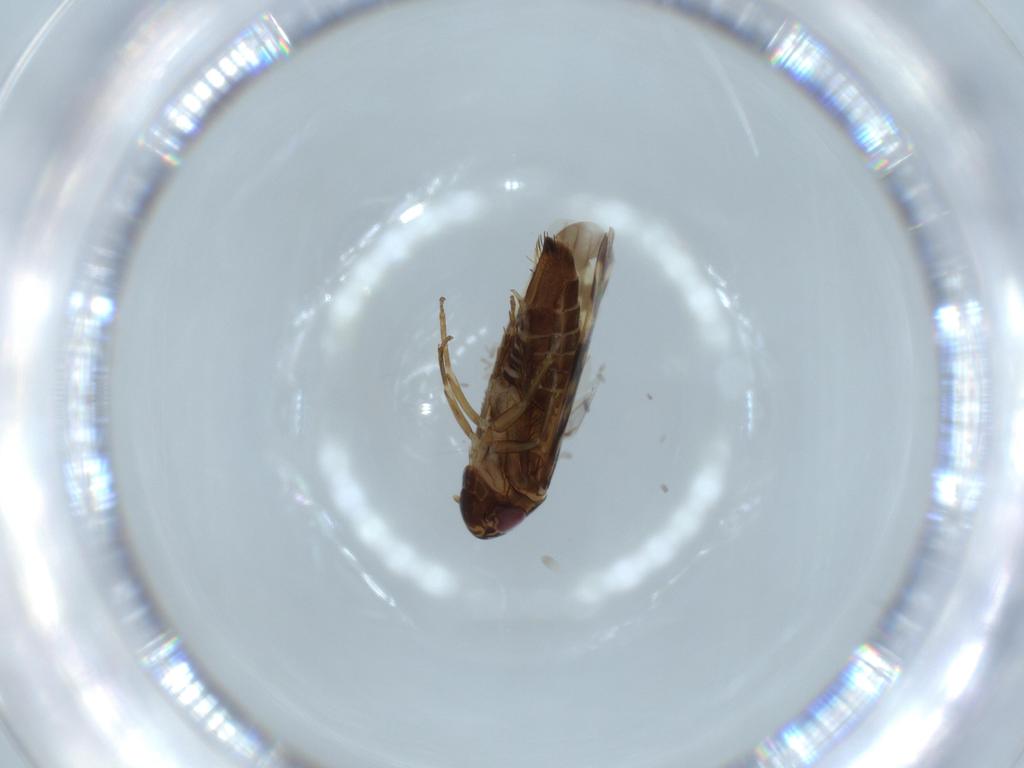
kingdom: Animalia
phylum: Arthropoda
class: Insecta
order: Hemiptera
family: Cicadellidae
